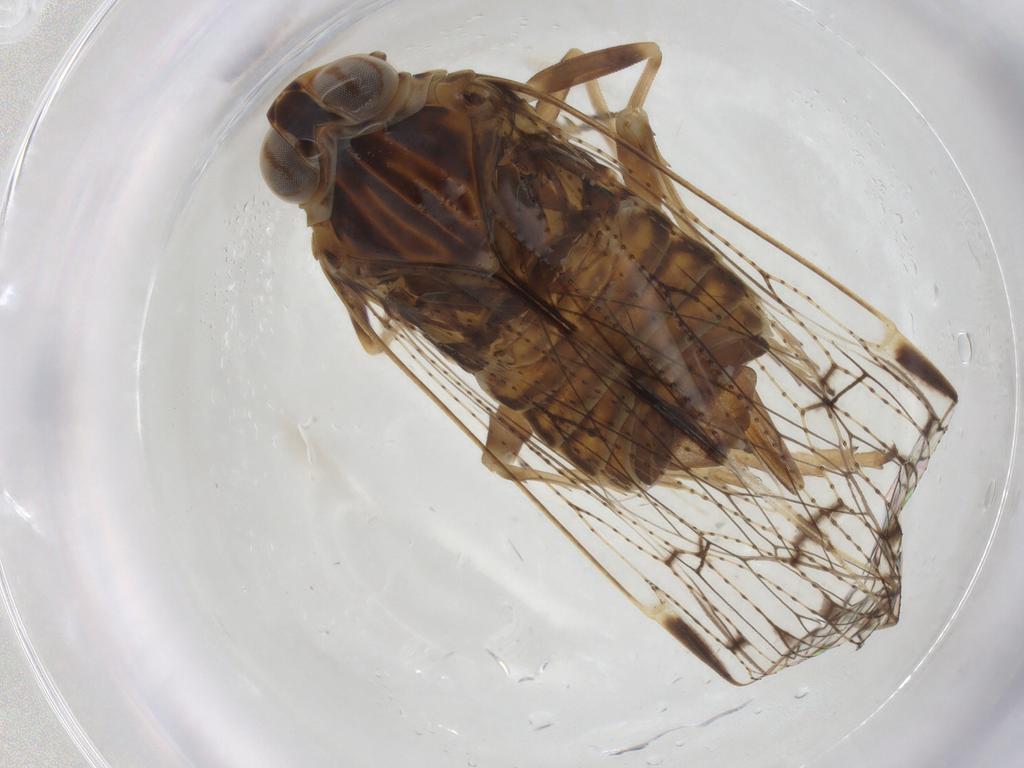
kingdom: Animalia
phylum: Arthropoda
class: Insecta
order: Hemiptera
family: Cixiidae
